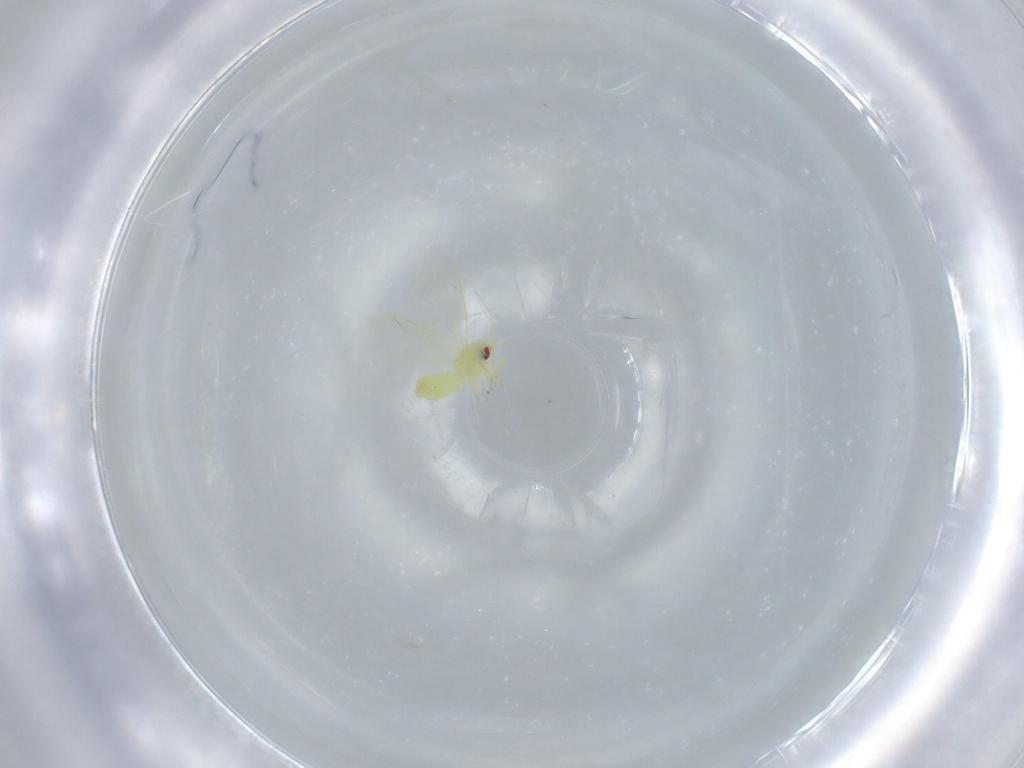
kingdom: Animalia
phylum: Arthropoda
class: Insecta
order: Hemiptera
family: Aleyrodidae
